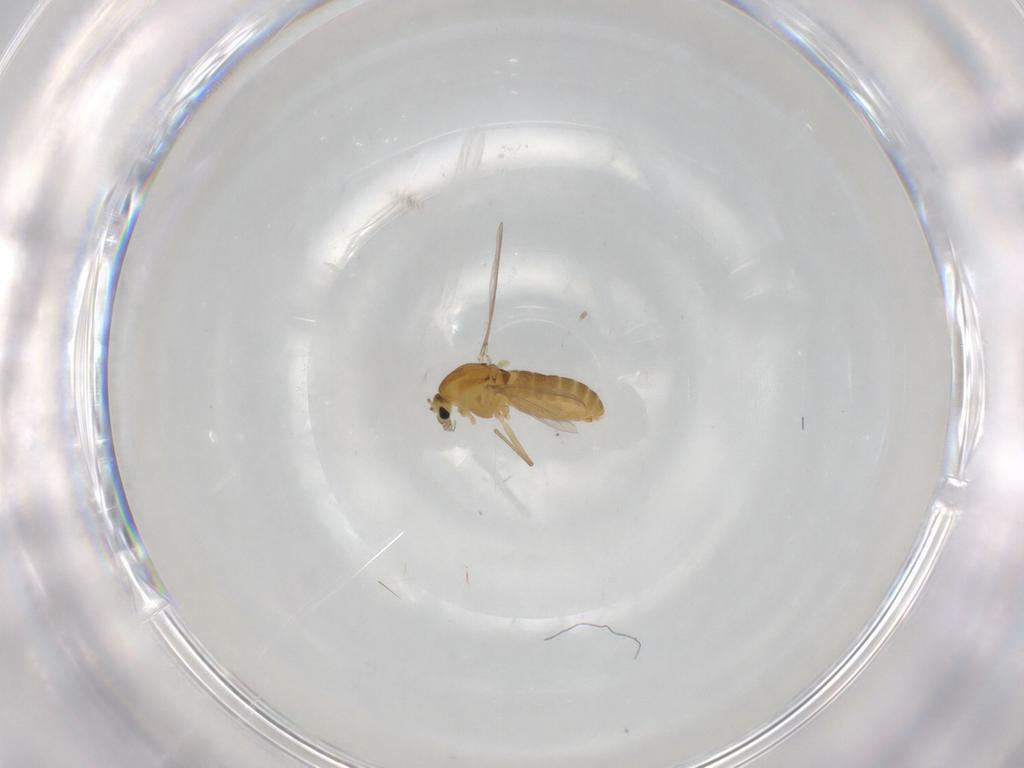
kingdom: Animalia
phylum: Arthropoda
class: Insecta
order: Diptera
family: Chironomidae
